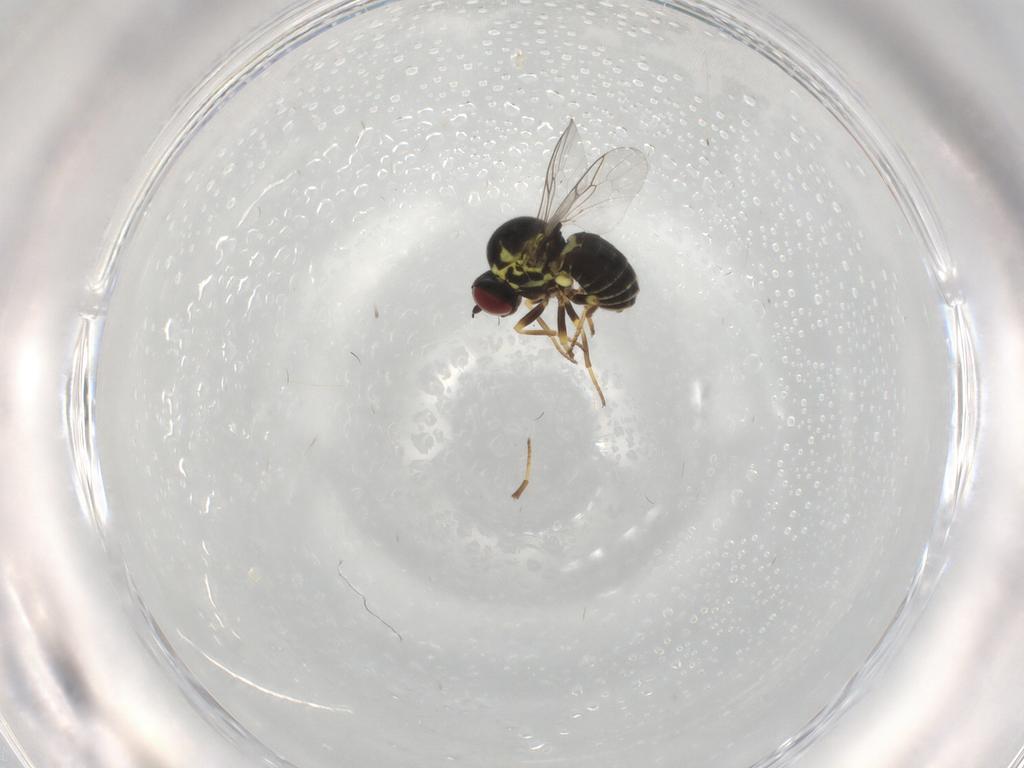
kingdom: Animalia
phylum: Arthropoda
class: Insecta
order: Diptera
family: Mythicomyiidae
